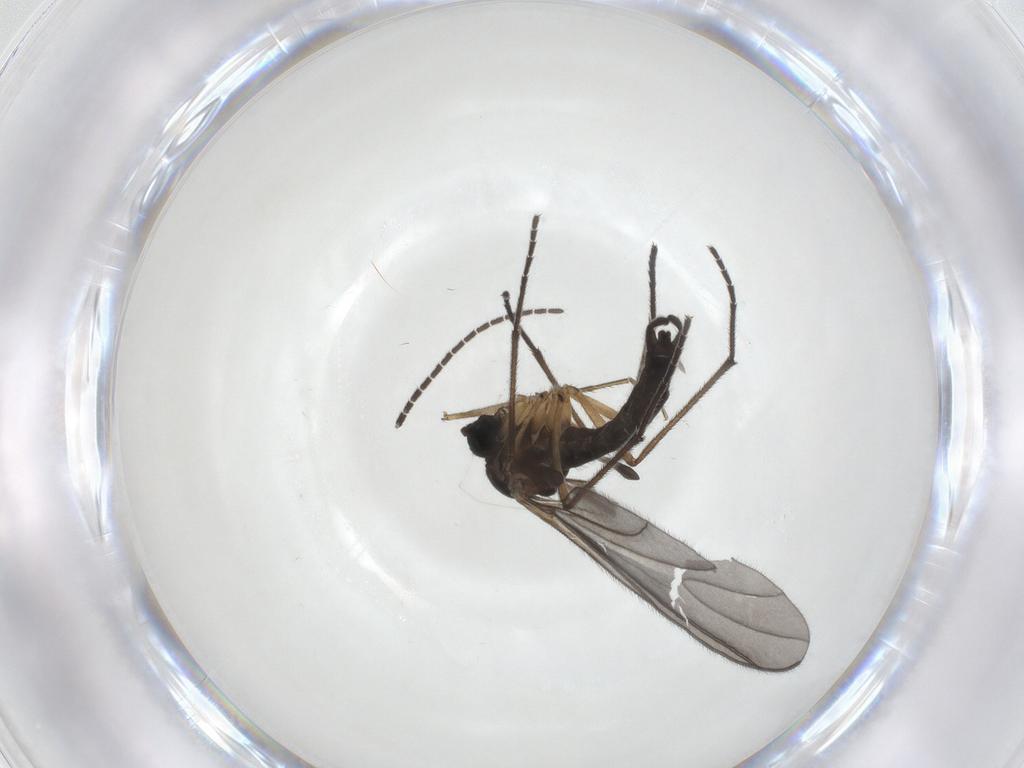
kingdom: Animalia
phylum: Arthropoda
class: Insecta
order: Diptera
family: Sciaridae
